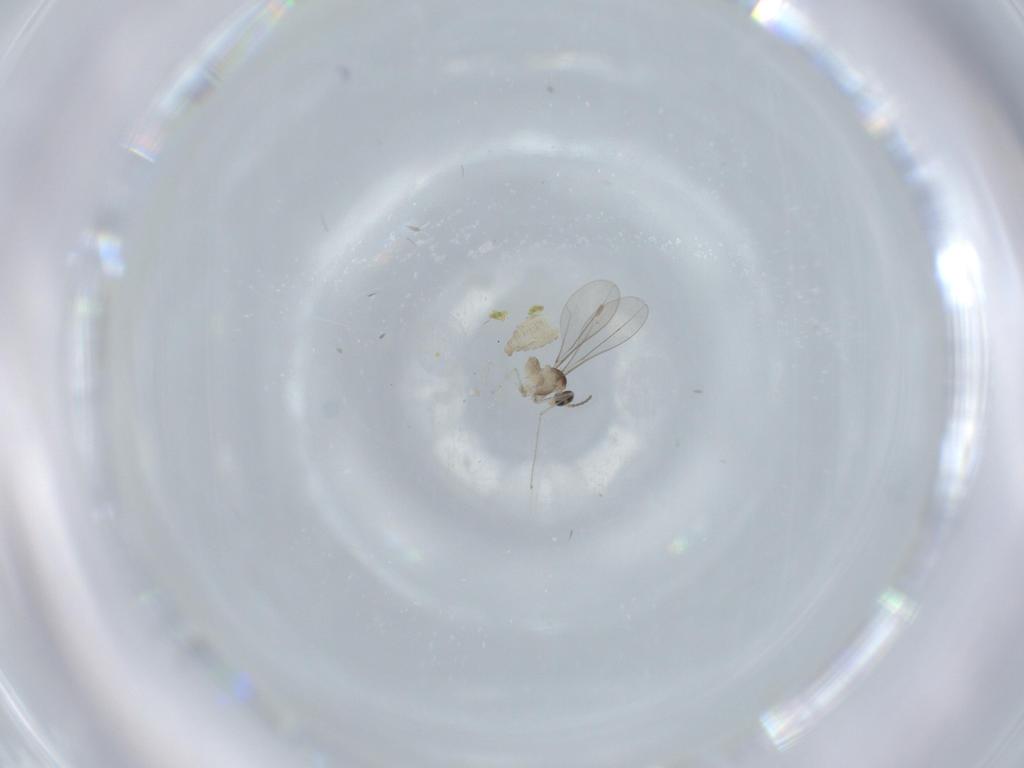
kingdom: Animalia
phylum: Arthropoda
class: Insecta
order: Diptera
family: Cecidomyiidae
